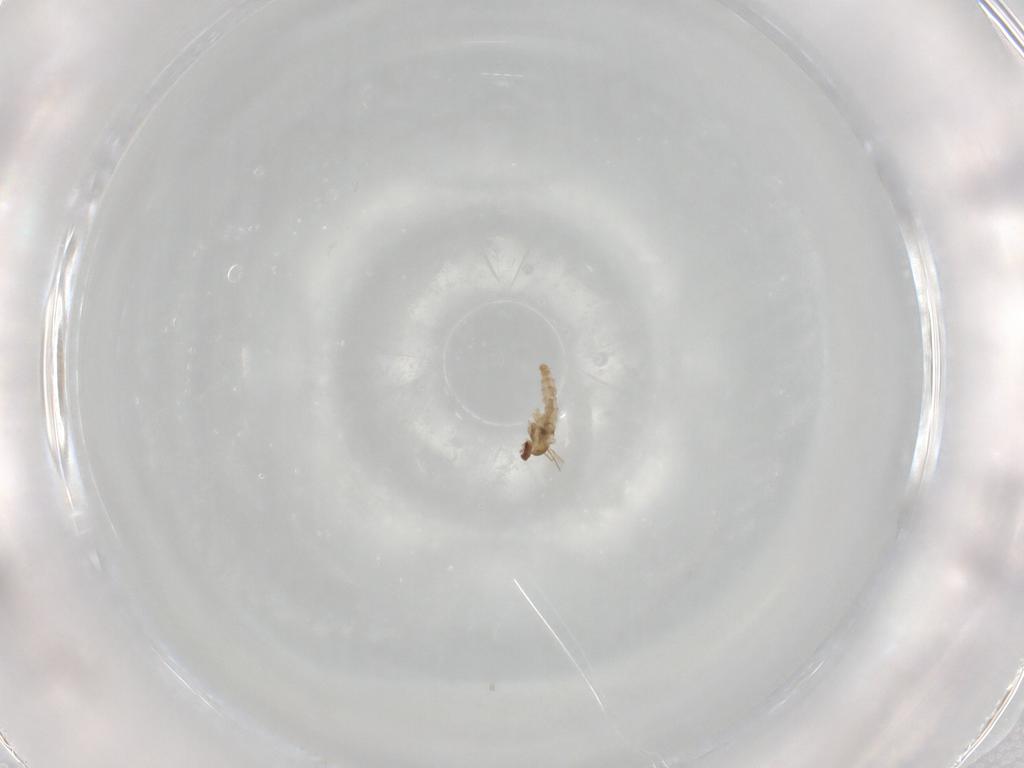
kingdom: Animalia
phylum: Arthropoda
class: Insecta
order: Diptera
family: Cecidomyiidae
